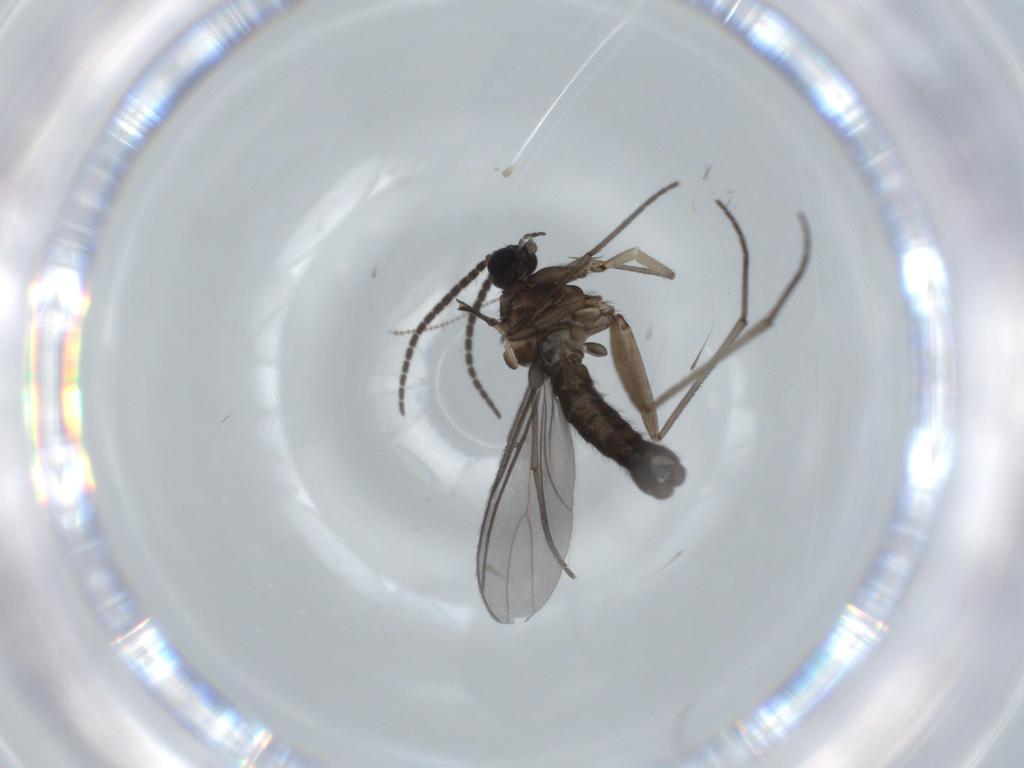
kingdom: Animalia
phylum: Arthropoda
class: Insecta
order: Diptera
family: Sciaridae
